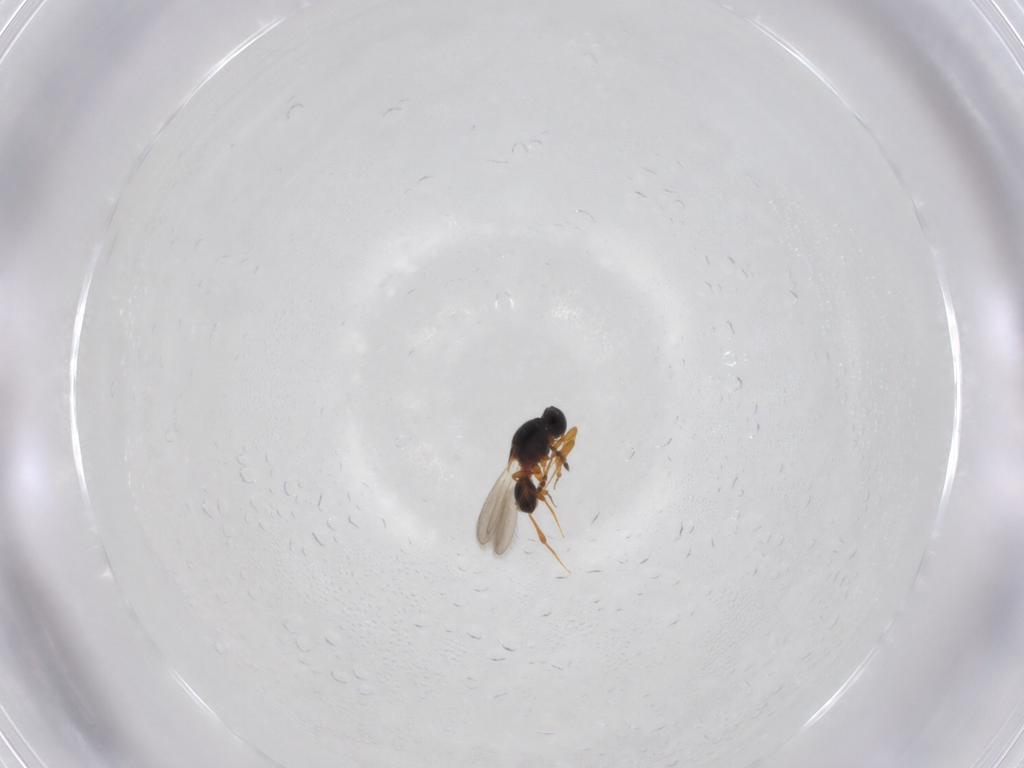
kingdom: Animalia
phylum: Arthropoda
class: Insecta
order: Hymenoptera
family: Platygastridae
